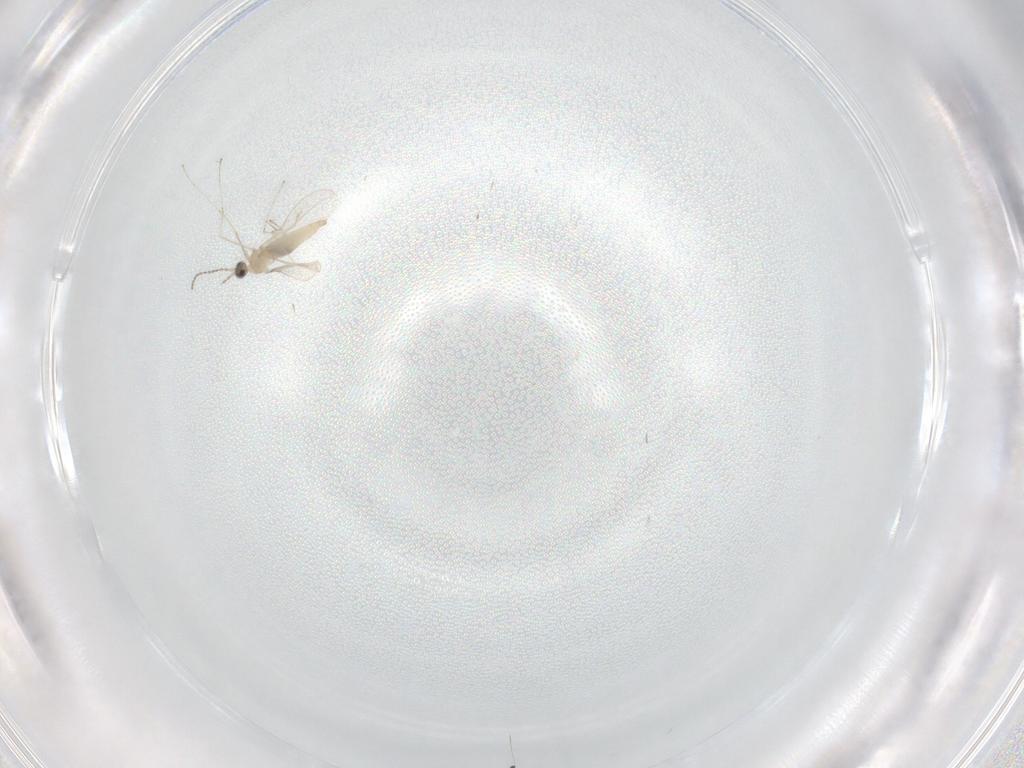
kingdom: Animalia
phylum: Arthropoda
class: Insecta
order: Diptera
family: Cecidomyiidae
